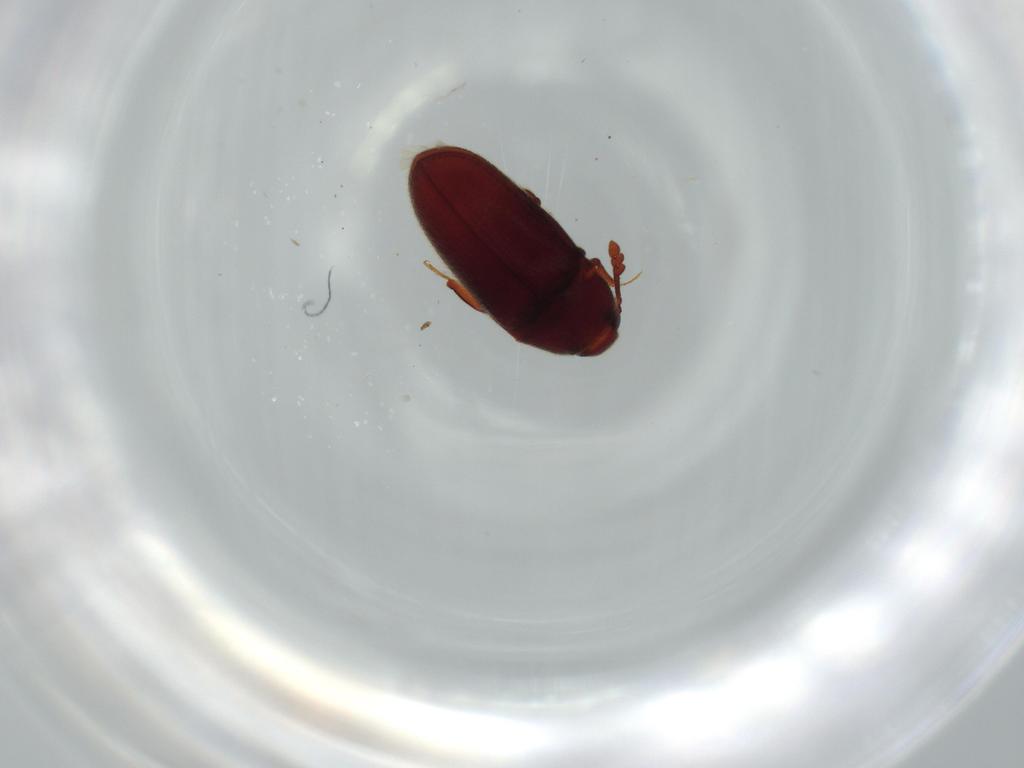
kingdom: Animalia
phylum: Arthropoda
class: Insecta
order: Coleoptera
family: Throscidae
